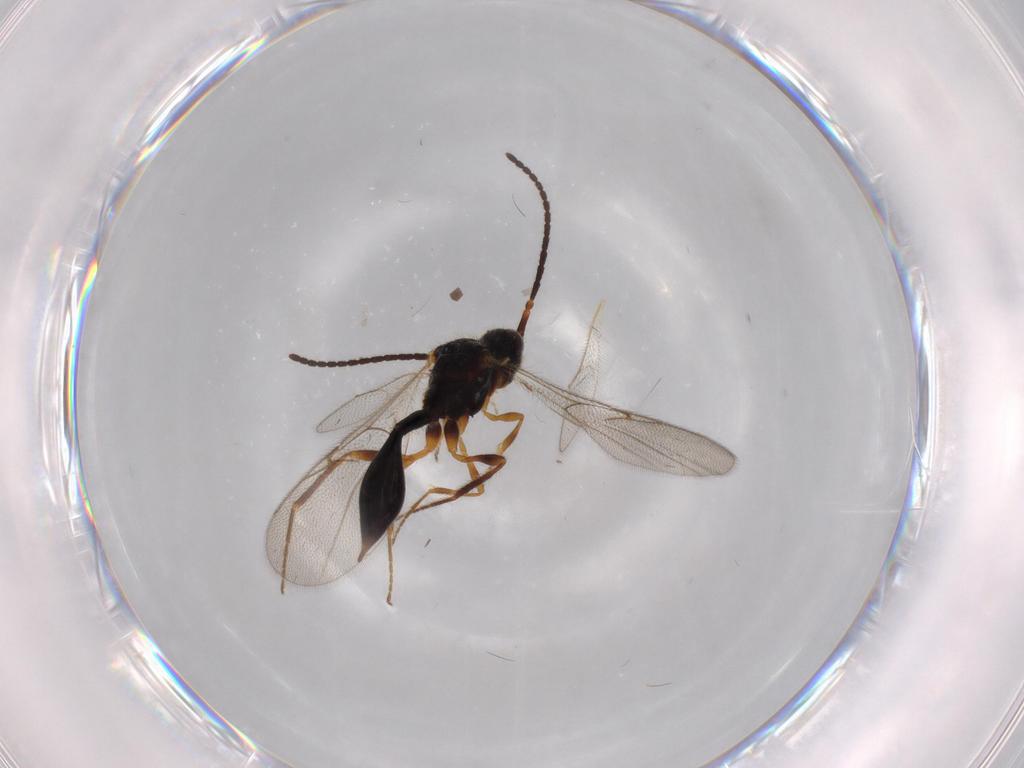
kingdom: Animalia
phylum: Arthropoda
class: Insecta
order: Hymenoptera
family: Diapriidae
